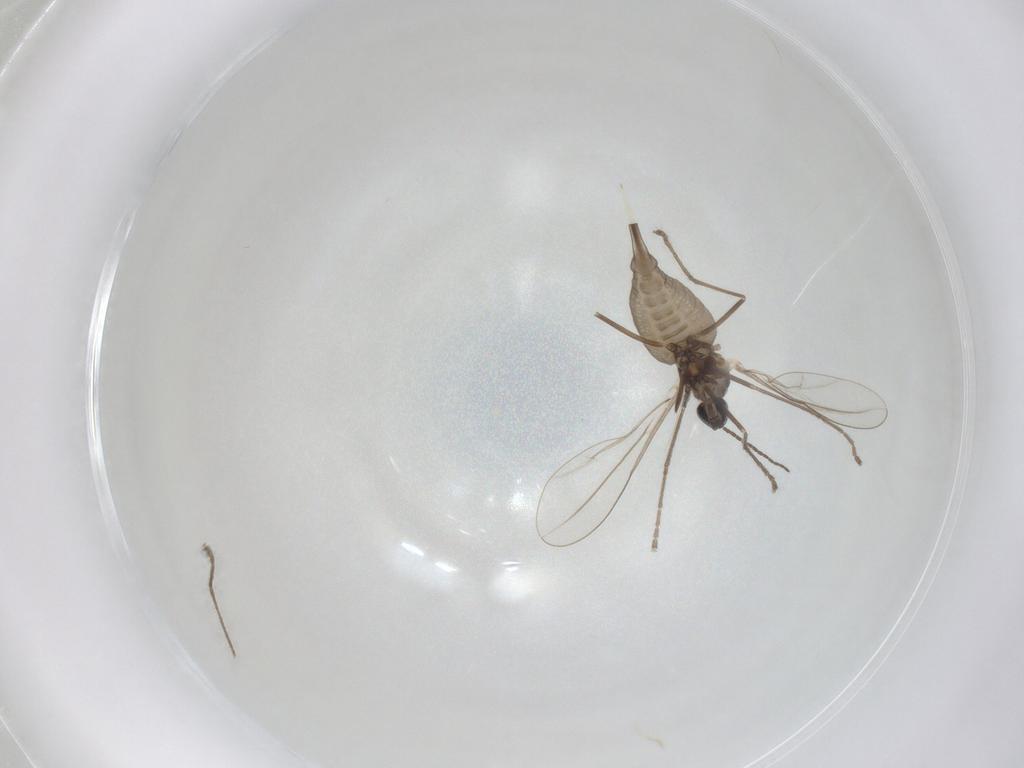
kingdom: Animalia
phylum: Arthropoda
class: Insecta
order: Diptera
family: Cecidomyiidae
